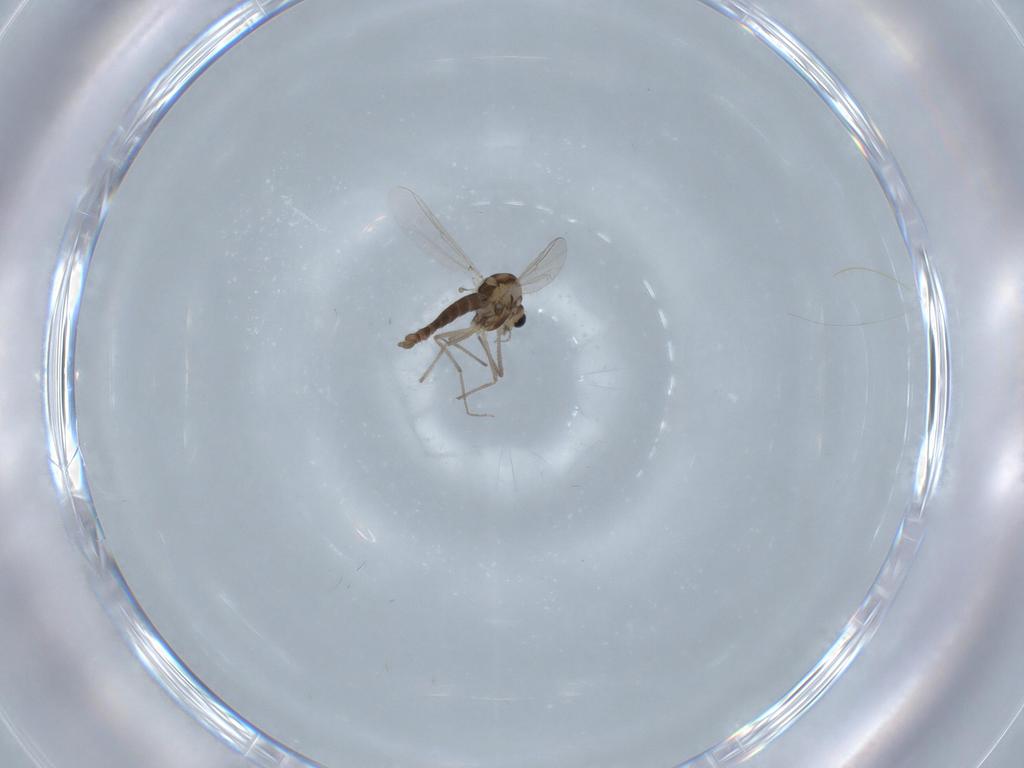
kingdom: Animalia
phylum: Arthropoda
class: Insecta
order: Diptera
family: Chironomidae
